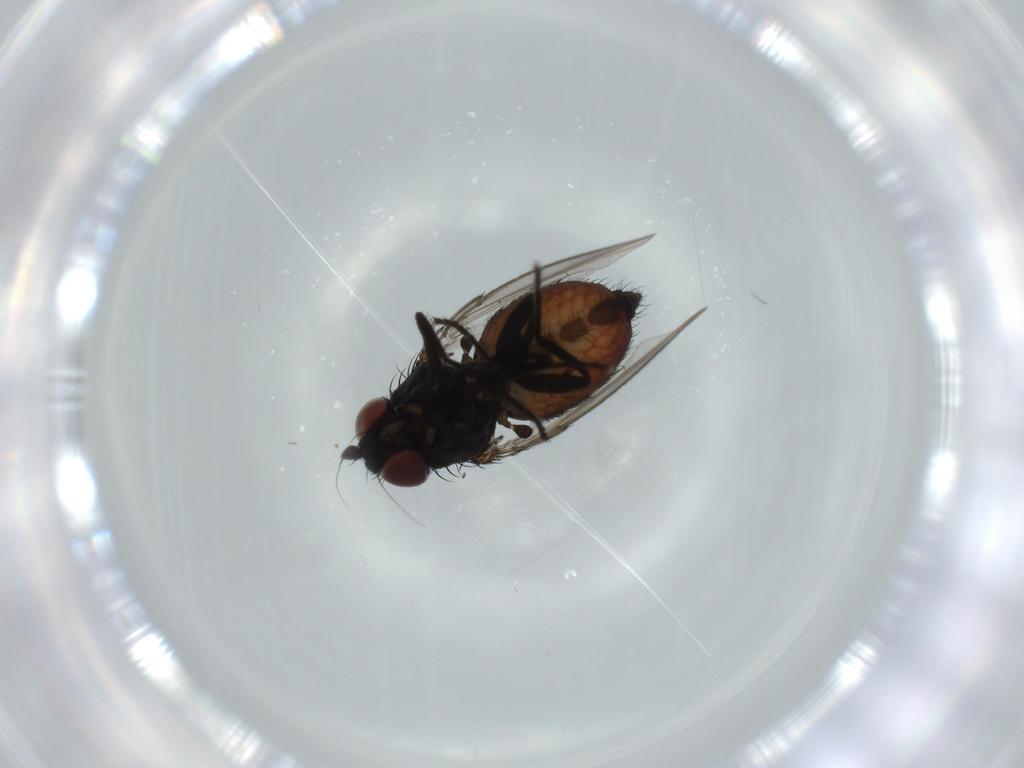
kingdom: Animalia
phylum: Arthropoda
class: Insecta
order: Diptera
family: Milichiidae
